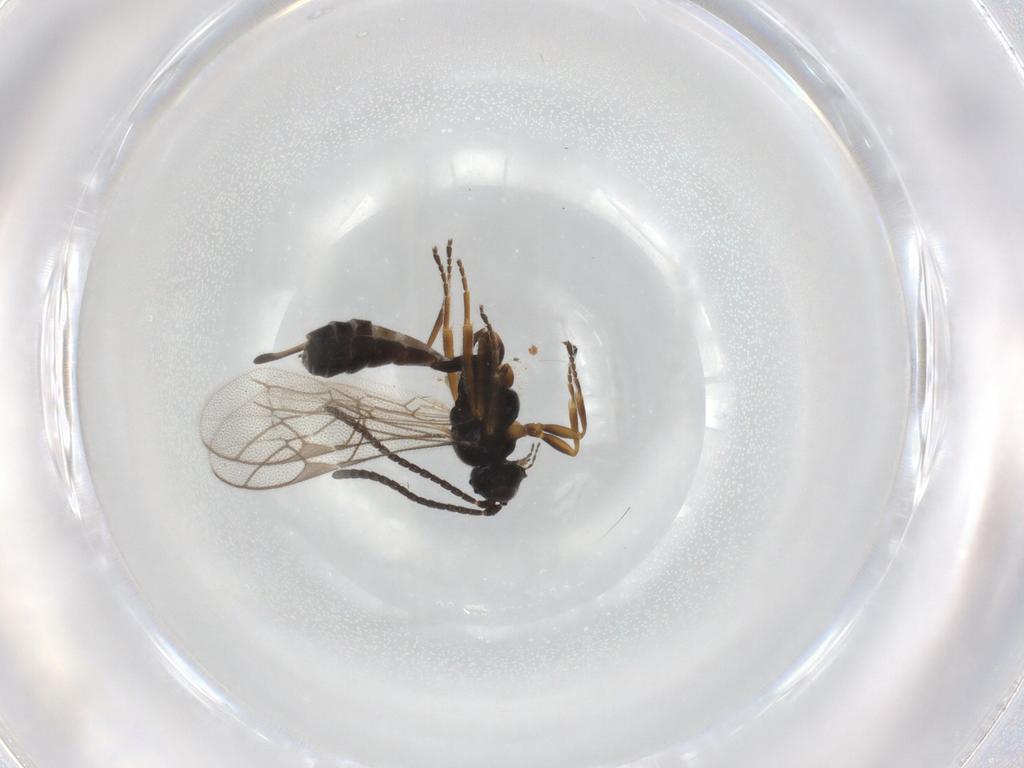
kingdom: Animalia
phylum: Arthropoda
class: Insecta
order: Hymenoptera
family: Ichneumonidae
